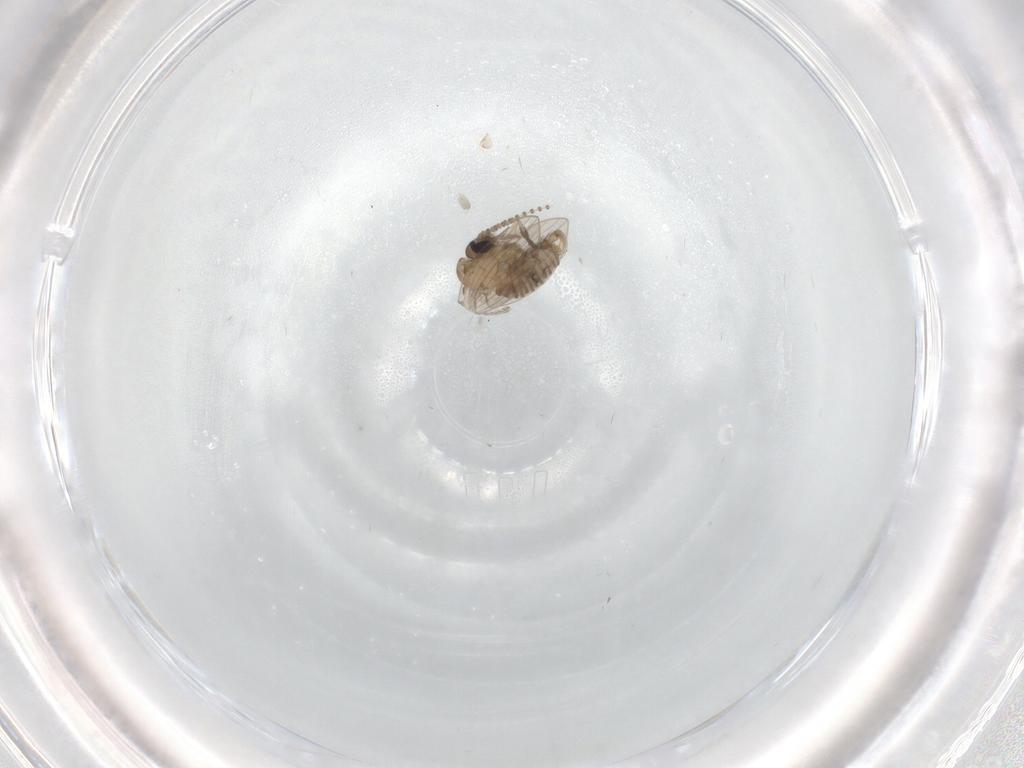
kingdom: Animalia
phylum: Arthropoda
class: Insecta
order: Diptera
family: Psychodidae
